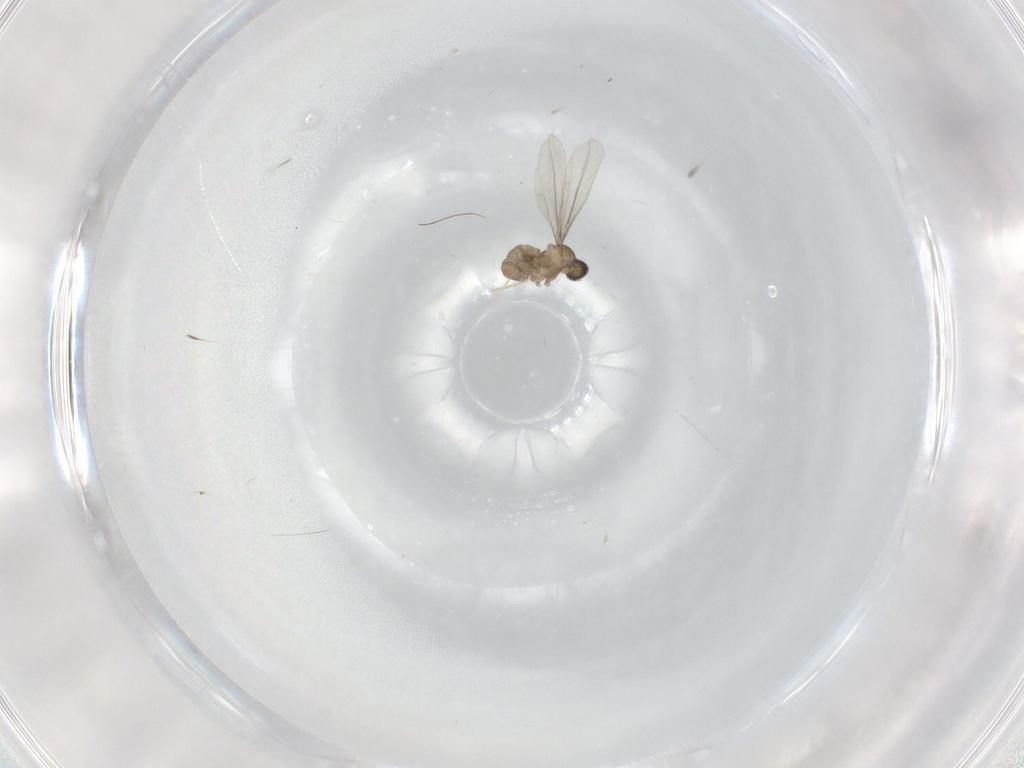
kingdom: Animalia
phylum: Arthropoda
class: Insecta
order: Diptera
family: Cecidomyiidae
